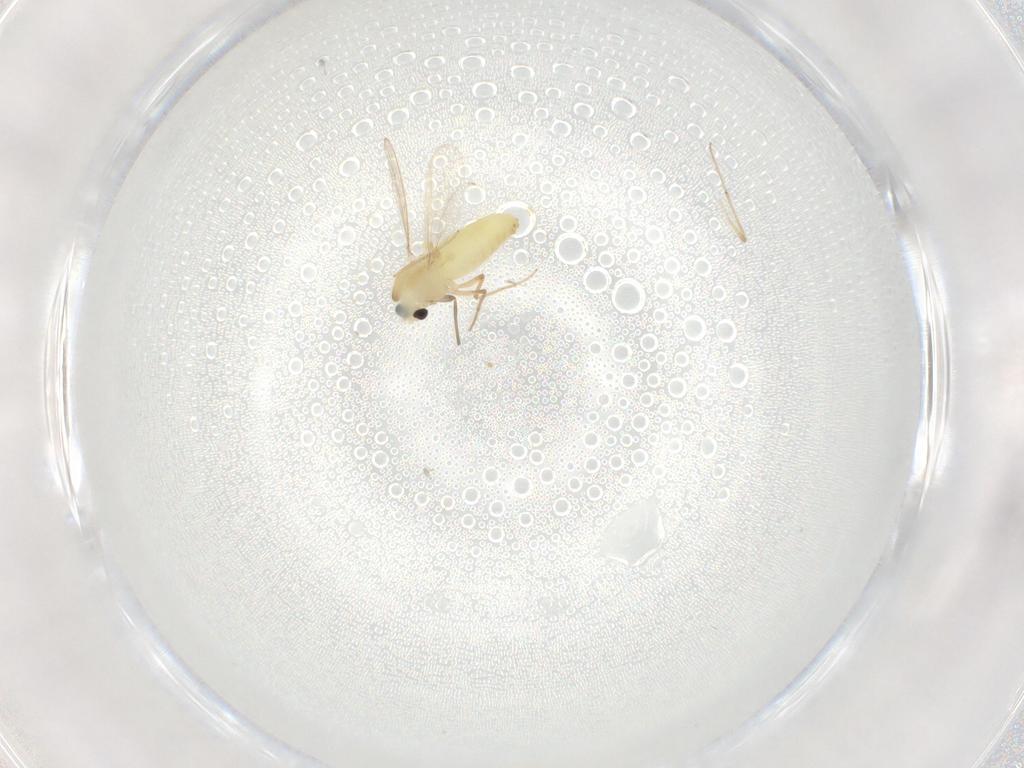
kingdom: Animalia
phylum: Arthropoda
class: Insecta
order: Diptera
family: Chironomidae
